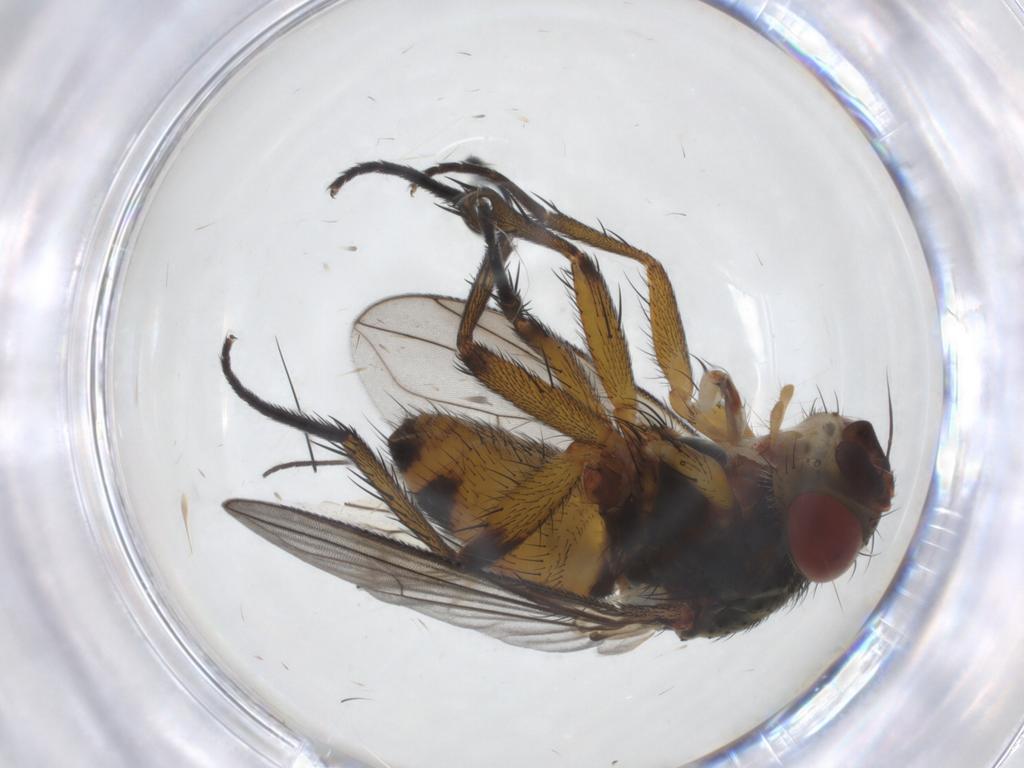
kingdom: Animalia
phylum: Arthropoda
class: Insecta
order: Diptera
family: Sciaridae
